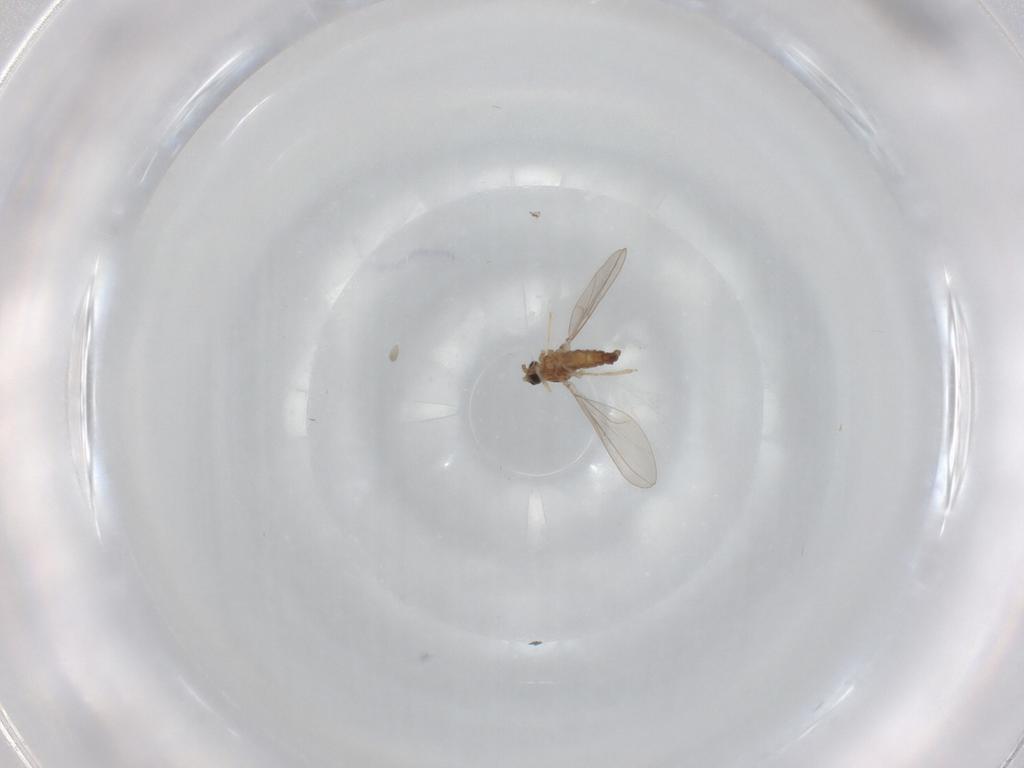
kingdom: Animalia
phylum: Arthropoda
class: Insecta
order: Diptera
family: Cecidomyiidae
